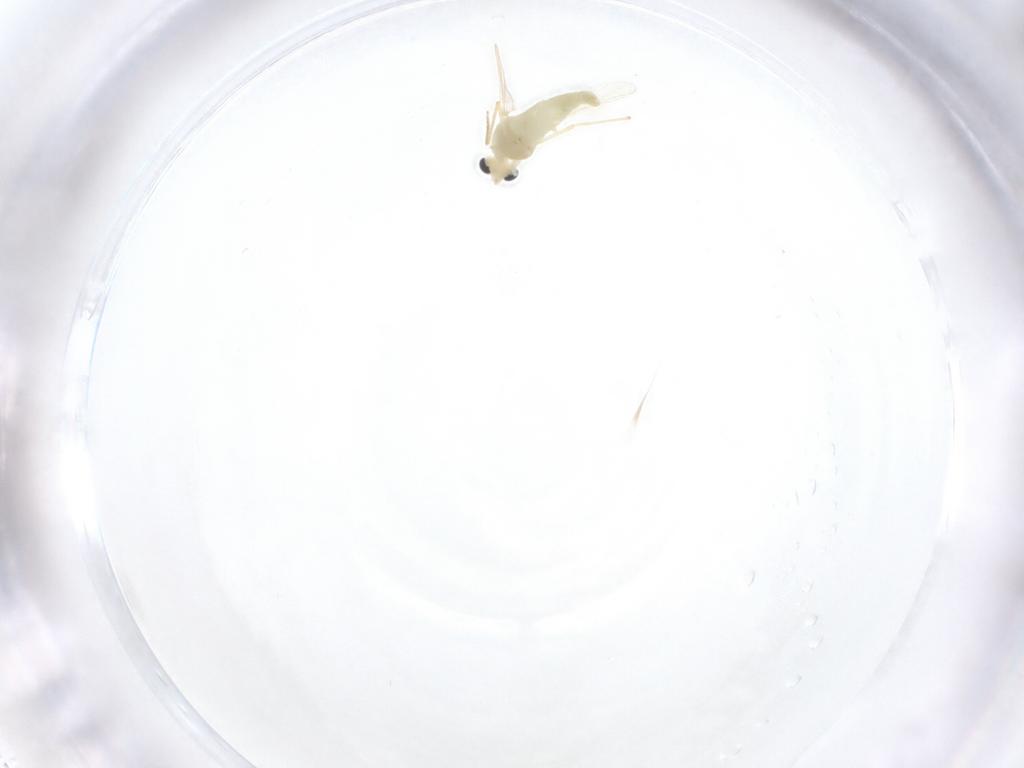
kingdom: Animalia
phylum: Arthropoda
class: Insecta
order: Diptera
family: Chironomidae
